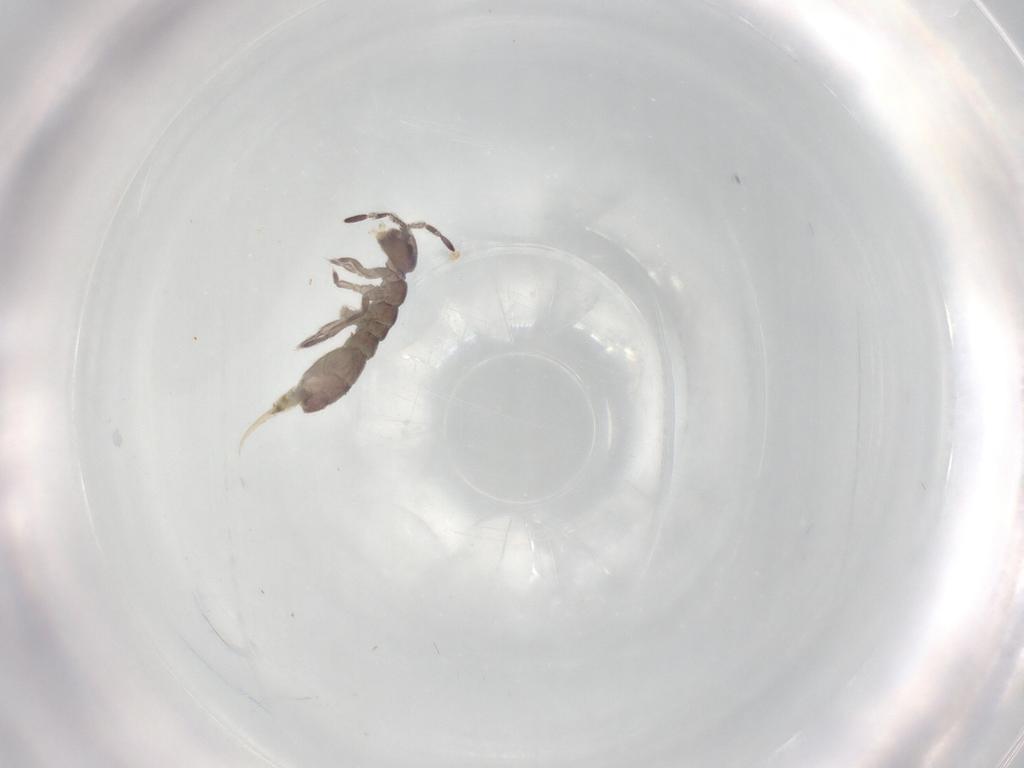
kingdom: Animalia
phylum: Arthropoda
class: Collembola
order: Entomobryomorpha
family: Isotomidae
